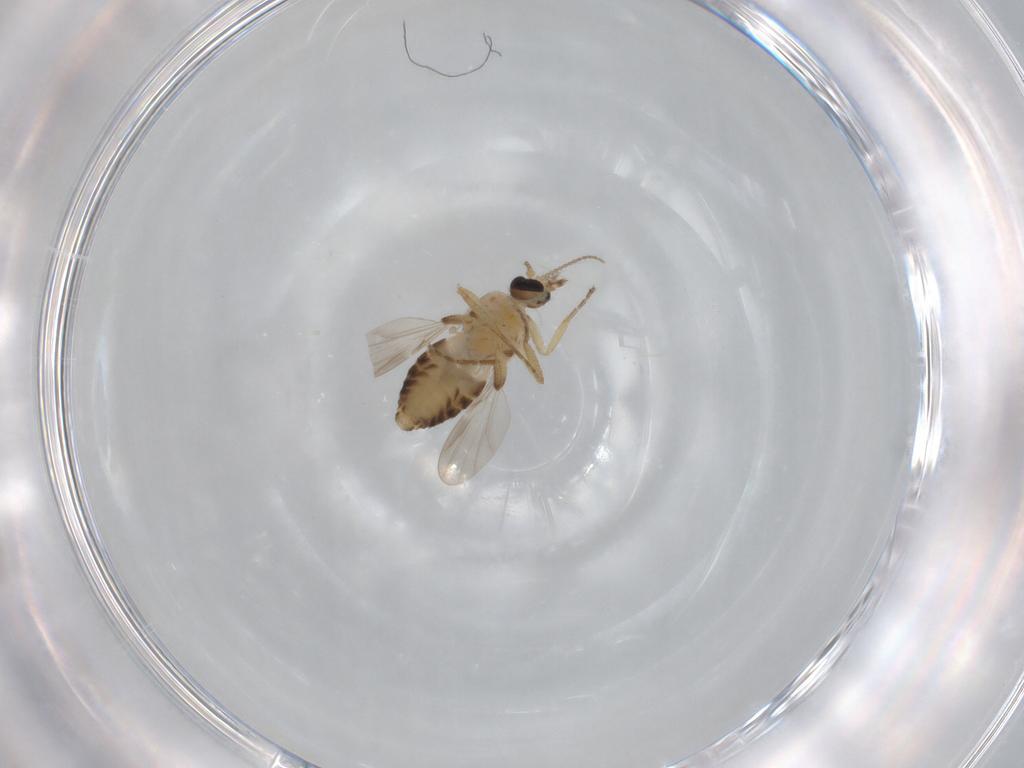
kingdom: Animalia
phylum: Arthropoda
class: Insecta
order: Diptera
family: Ceratopogonidae
